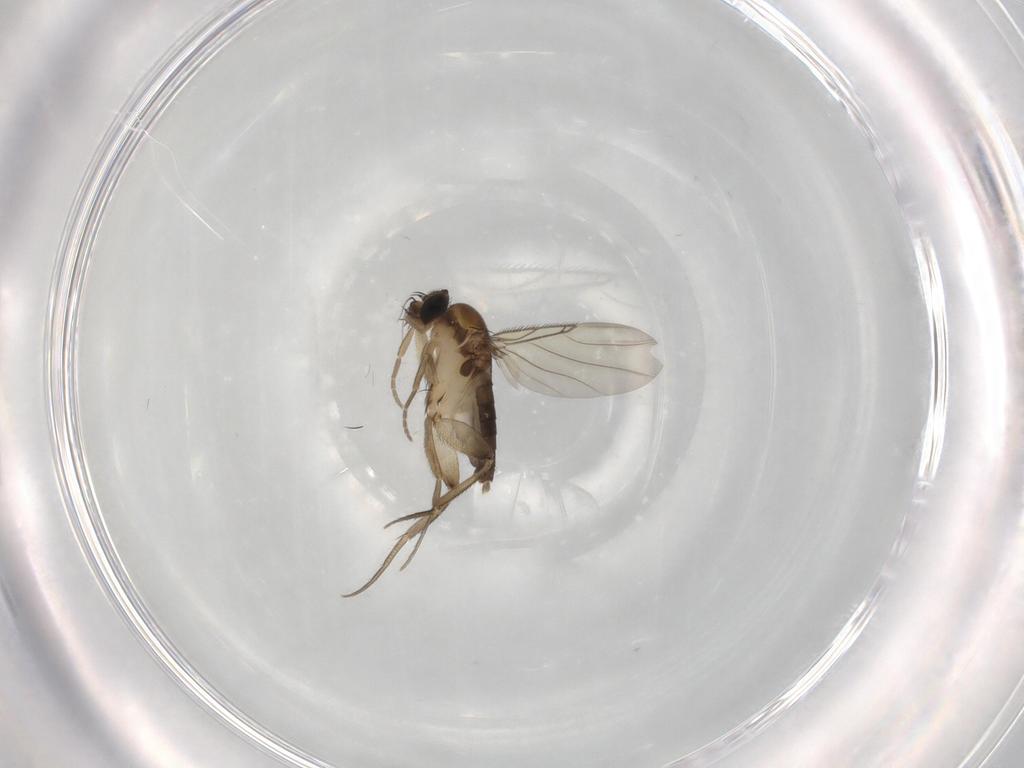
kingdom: Animalia
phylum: Arthropoda
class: Insecta
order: Diptera
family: Phoridae
